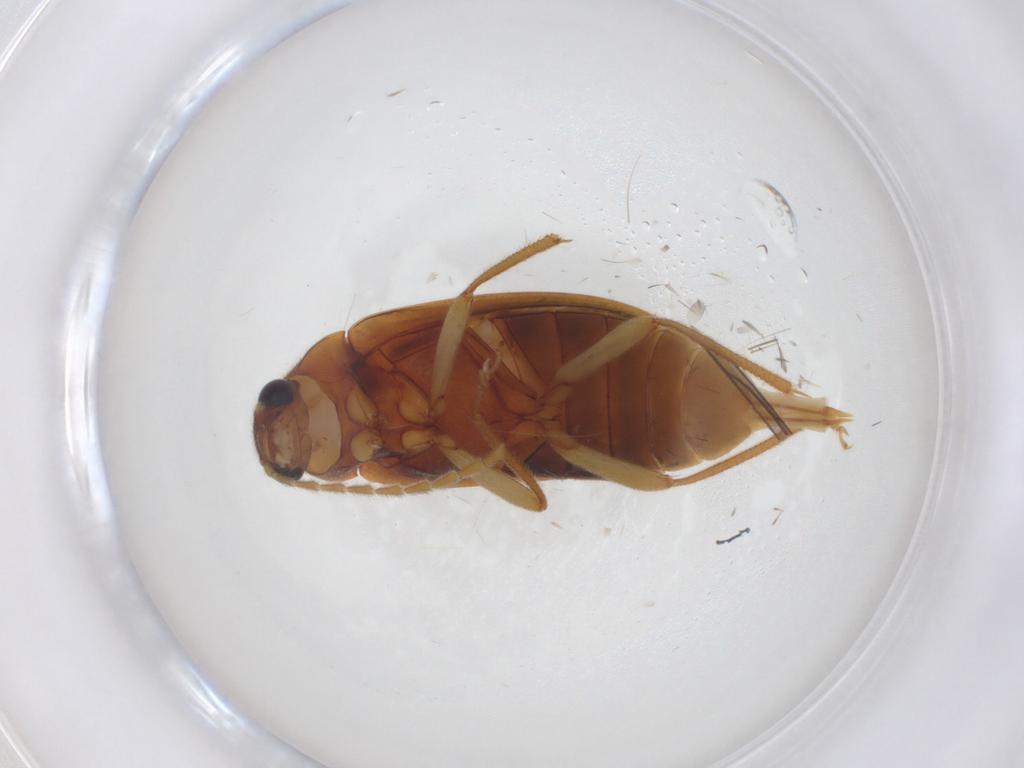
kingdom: Animalia
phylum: Arthropoda
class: Insecta
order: Coleoptera
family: Ptilodactylidae
